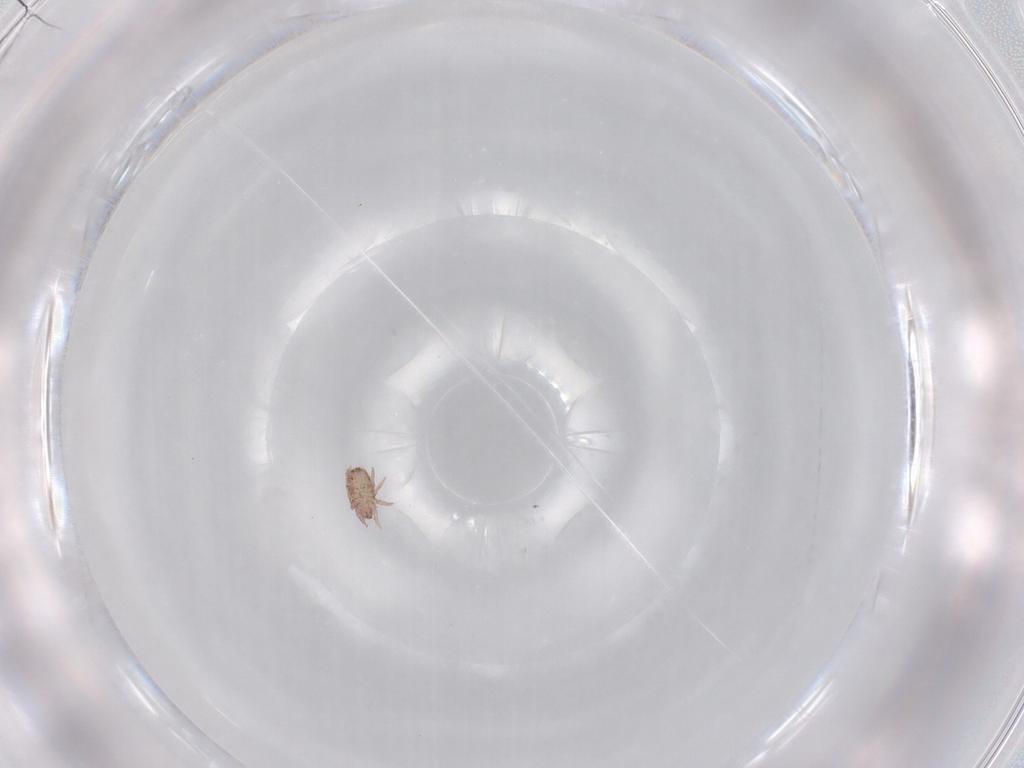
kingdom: Animalia
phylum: Arthropoda
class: Arachnida
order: Sarcoptiformes
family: Crotoniidae
